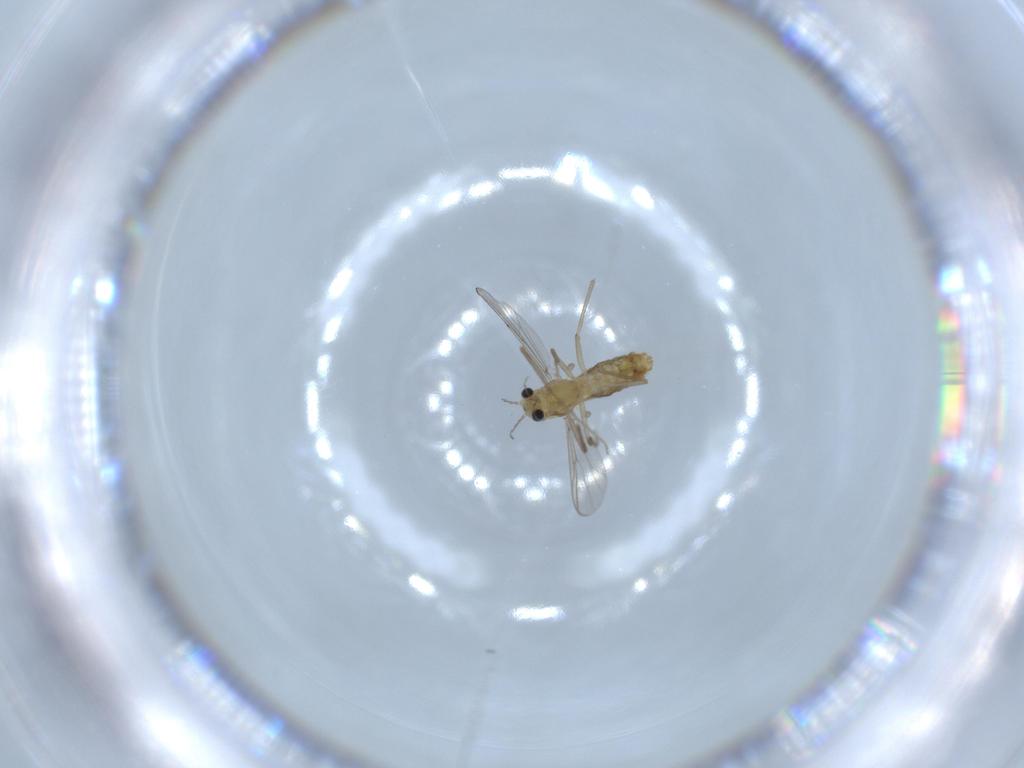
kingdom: Animalia
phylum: Arthropoda
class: Insecta
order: Diptera
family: Chironomidae
